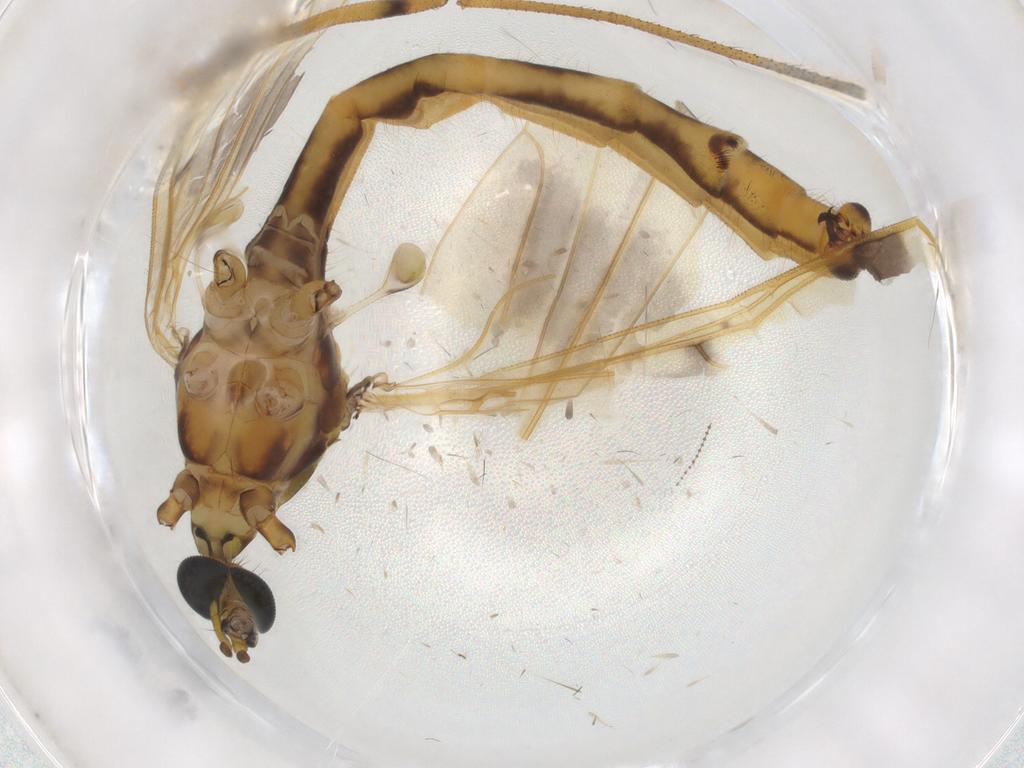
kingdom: Animalia
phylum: Arthropoda
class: Insecta
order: Diptera
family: Limoniidae
